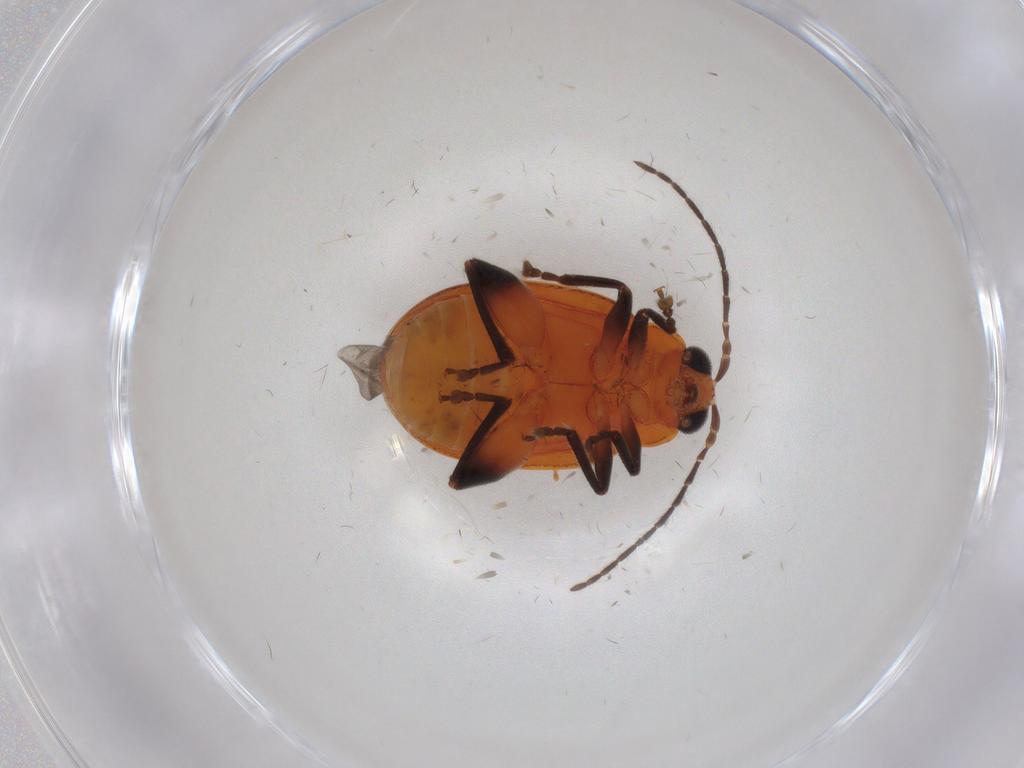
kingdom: Animalia
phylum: Arthropoda
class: Insecta
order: Coleoptera
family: Chrysomelidae
